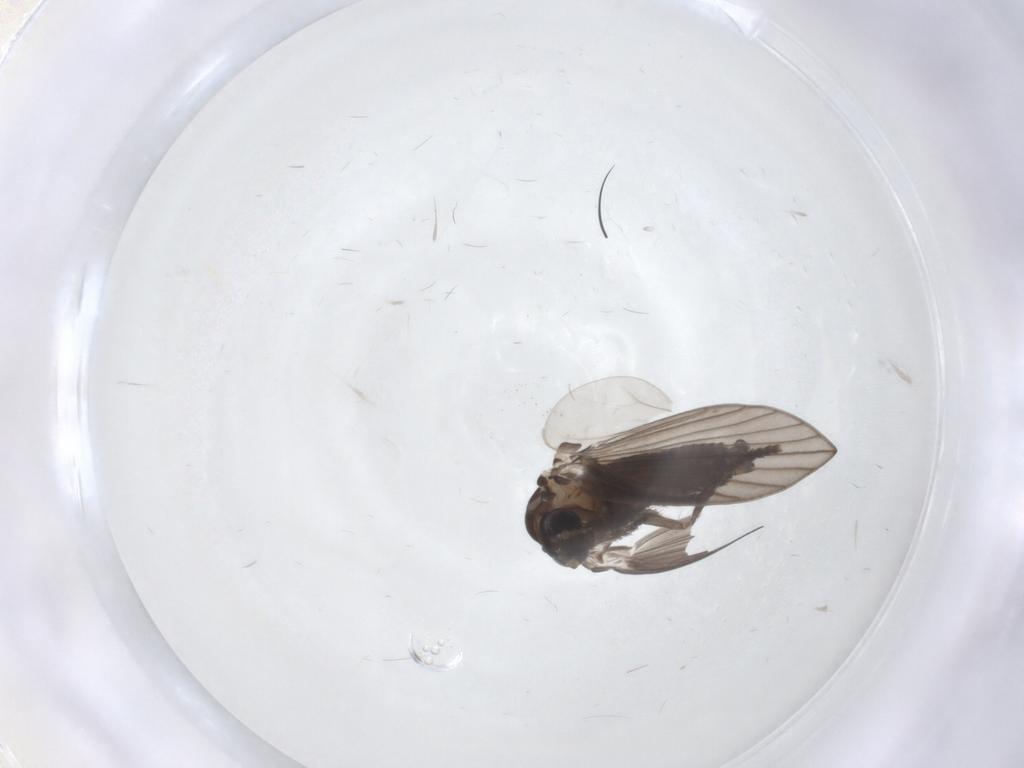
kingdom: Animalia
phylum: Arthropoda
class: Insecta
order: Diptera
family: Psychodidae
